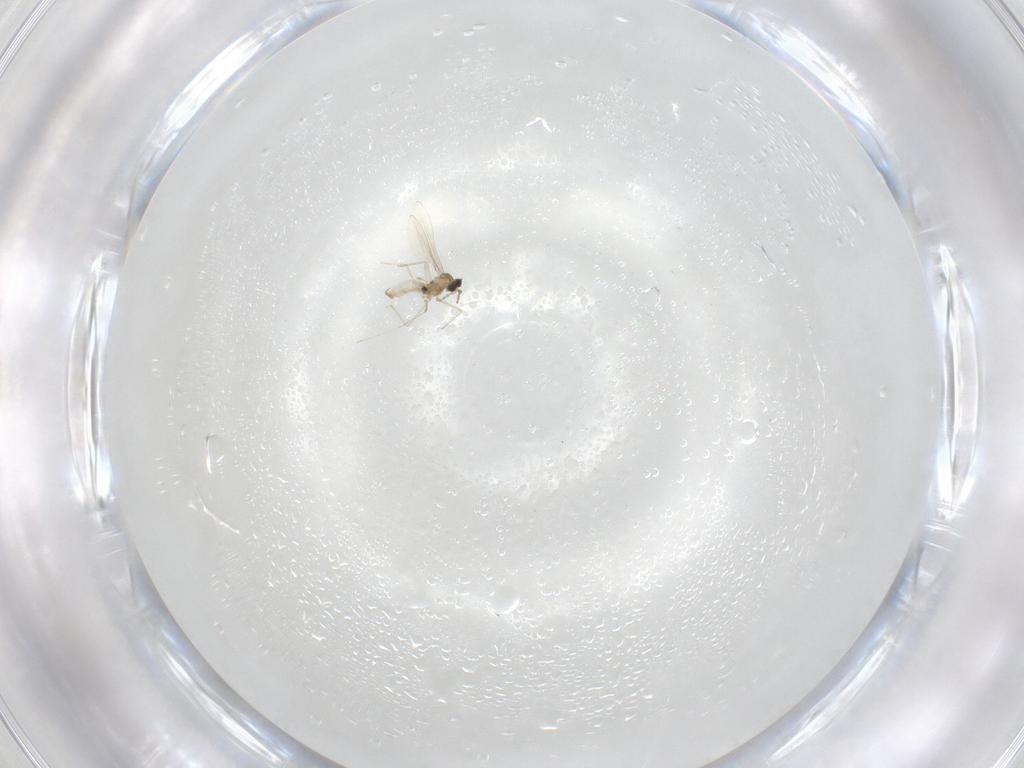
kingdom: Animalia
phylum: Arthropoda
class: Insecta
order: Diptera
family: Cecidomyiidae
